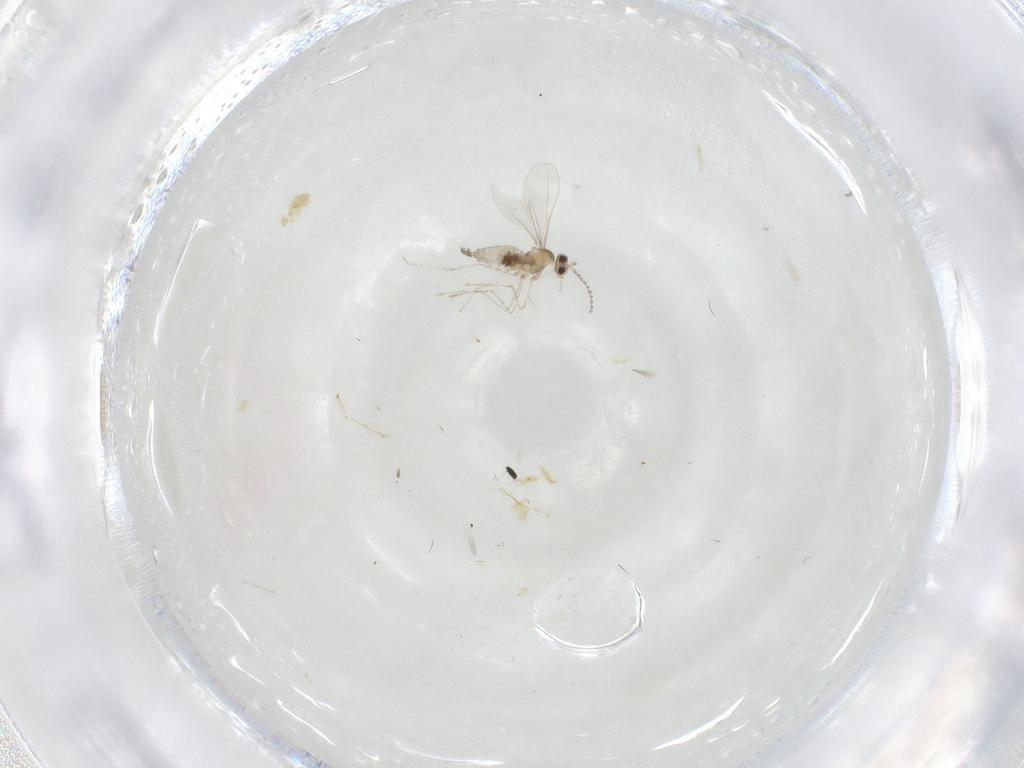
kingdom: Animalia
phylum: Arthropoda
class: Insecta
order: Diptera
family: Cecidomyiidae
